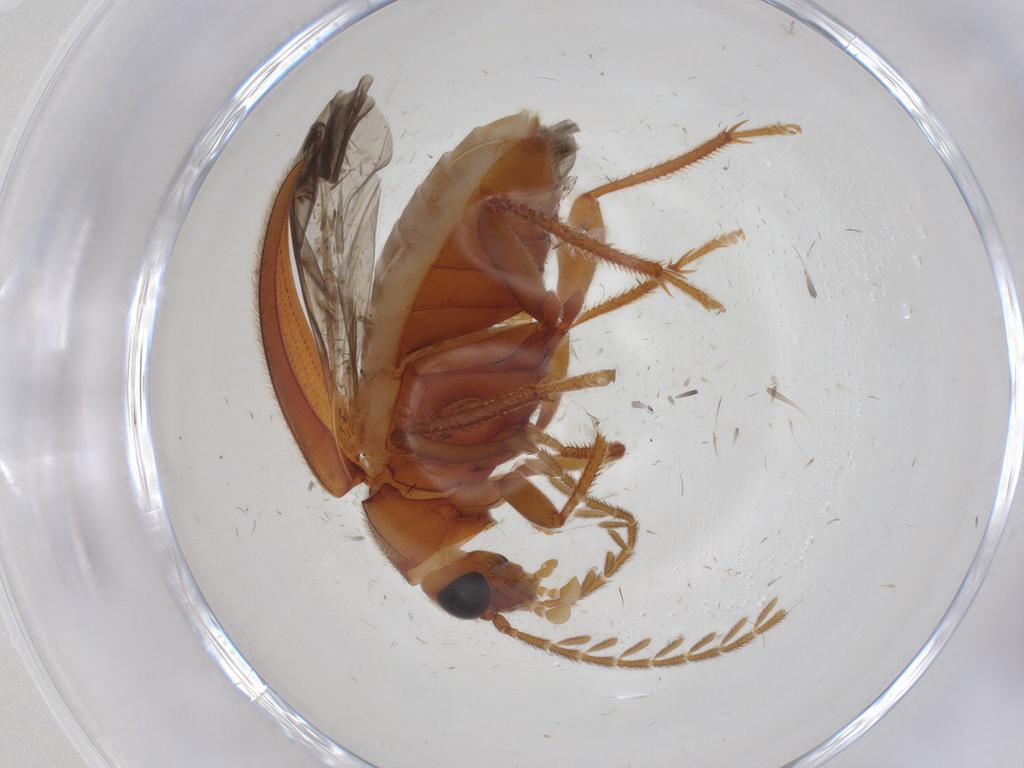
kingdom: Animalia
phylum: Arthropoda
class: Insecta
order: Coleoptera
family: Ptilodactylidae
